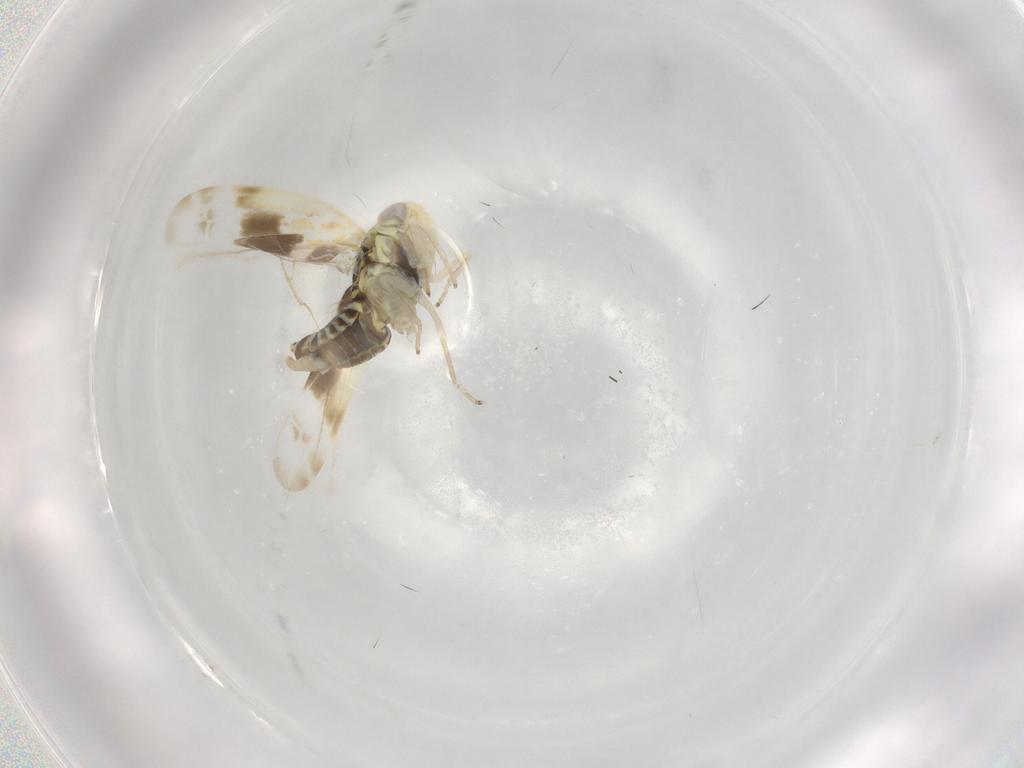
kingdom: Animalia
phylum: Arthropoda
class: Insecta
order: Hemiptera
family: Cicadellidae
